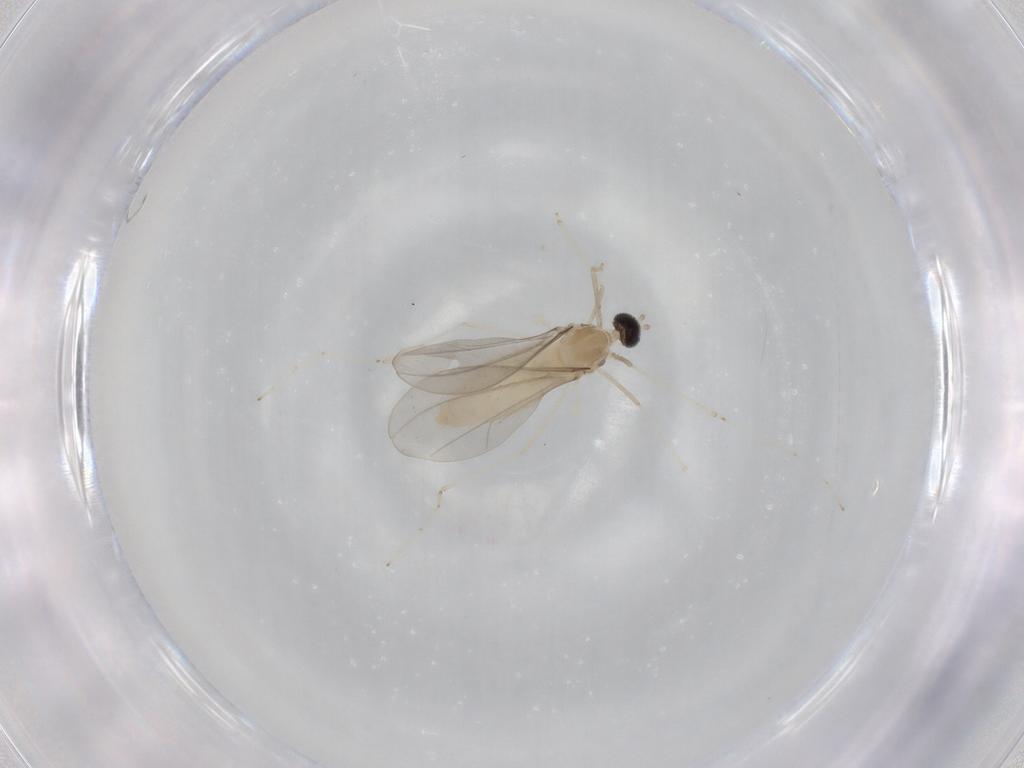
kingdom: Animalia
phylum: Arthropoda
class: Insecta
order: Diptera
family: Cecidomyiidae
